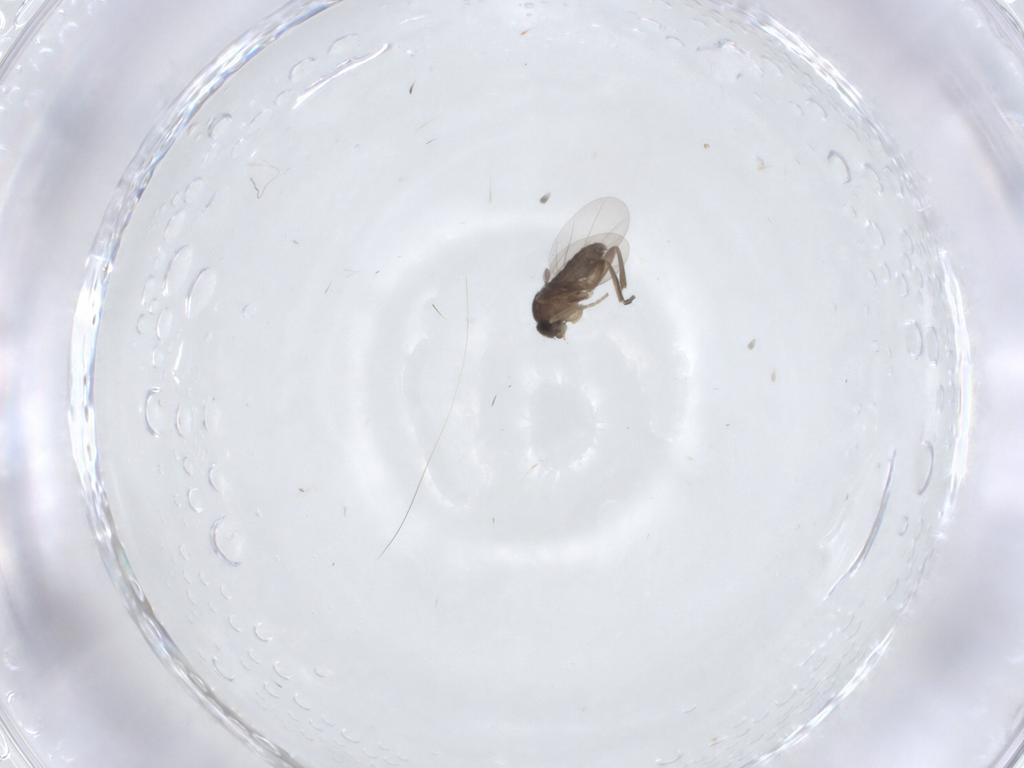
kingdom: Animalia
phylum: Arthropoda
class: Insecta
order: Diptera
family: Phoridae
